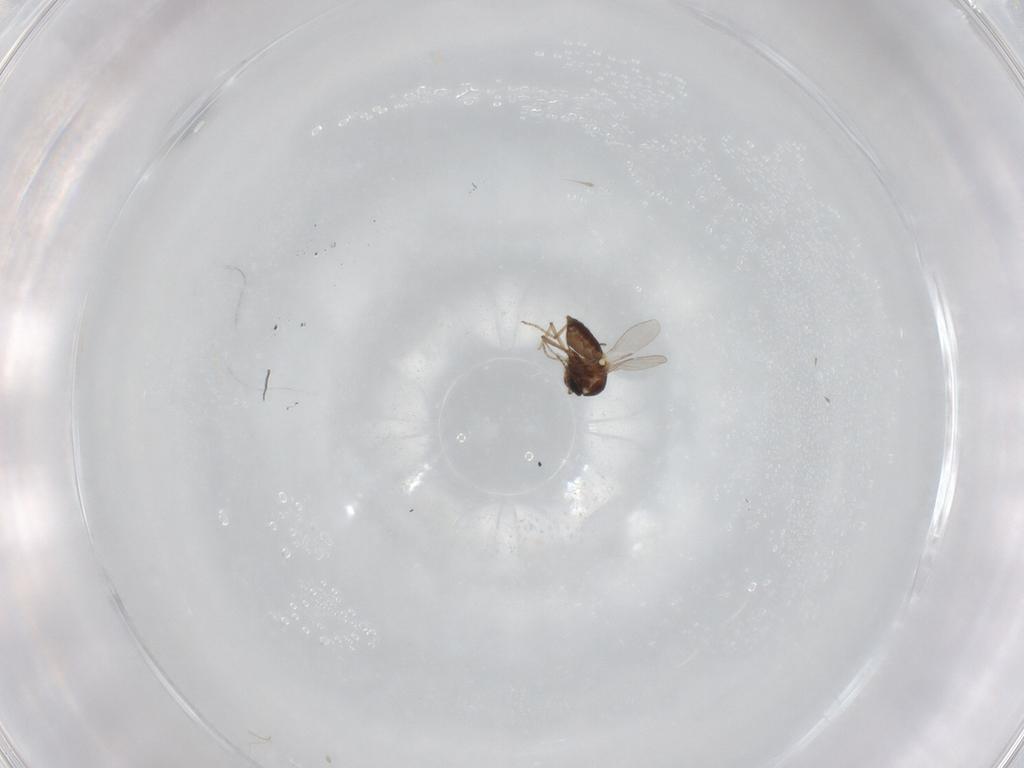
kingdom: Animalia
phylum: Arthropoda
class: Insecta
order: Diptera
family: Ceratopogonidae
